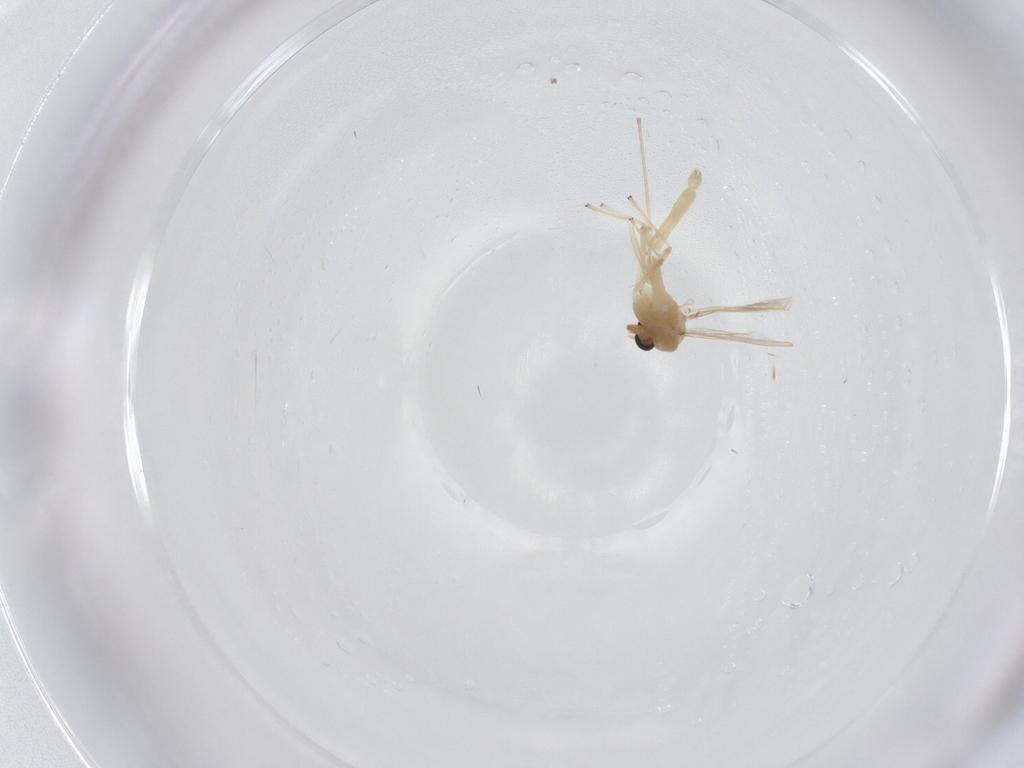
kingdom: Animalia
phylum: Arthropoda
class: Insecta
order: Diptera
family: Chironomidae
